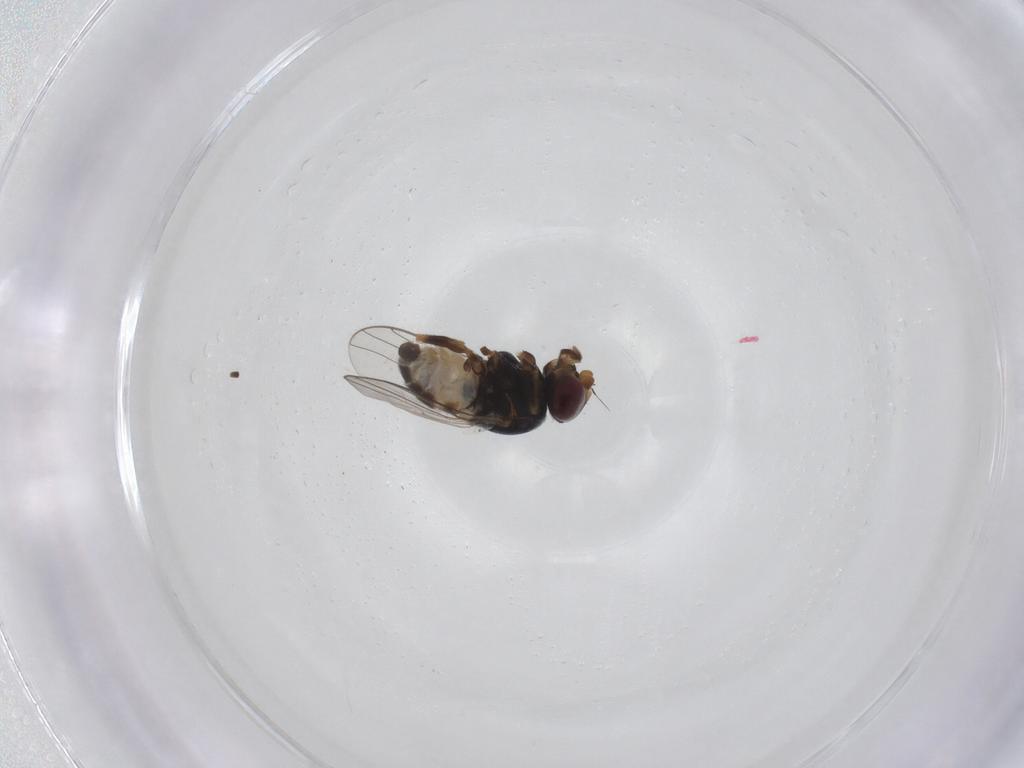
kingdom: Animalia
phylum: Arthropoda
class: Insecta
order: Diptera
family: Chloropidae
